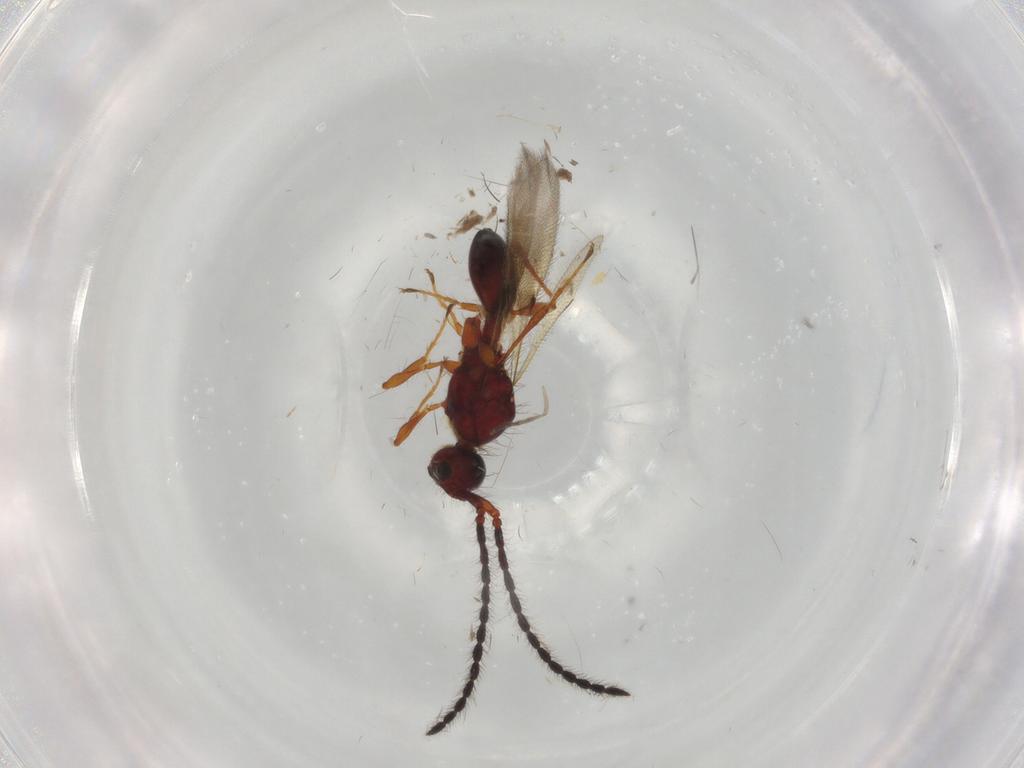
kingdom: Animalia
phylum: Arthropoda
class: Insecta
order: Hymenoptera
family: Diapriidae
